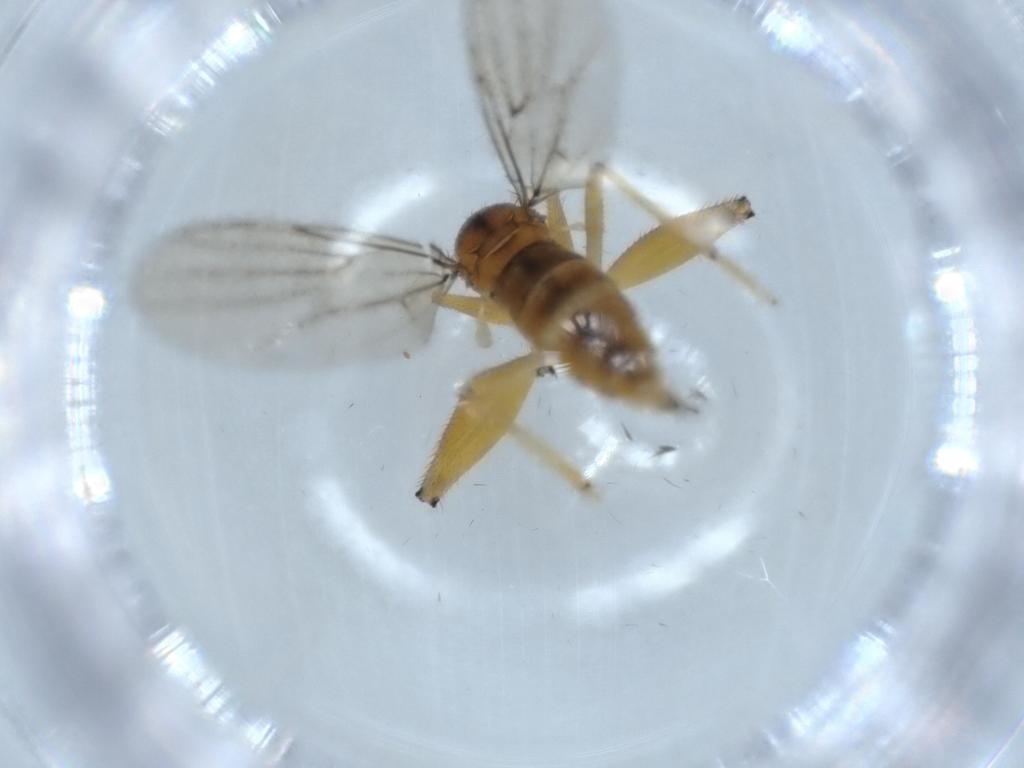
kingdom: Animalia
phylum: Arthropoda
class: Insecta
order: Diptera
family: Ceratopogonidae
